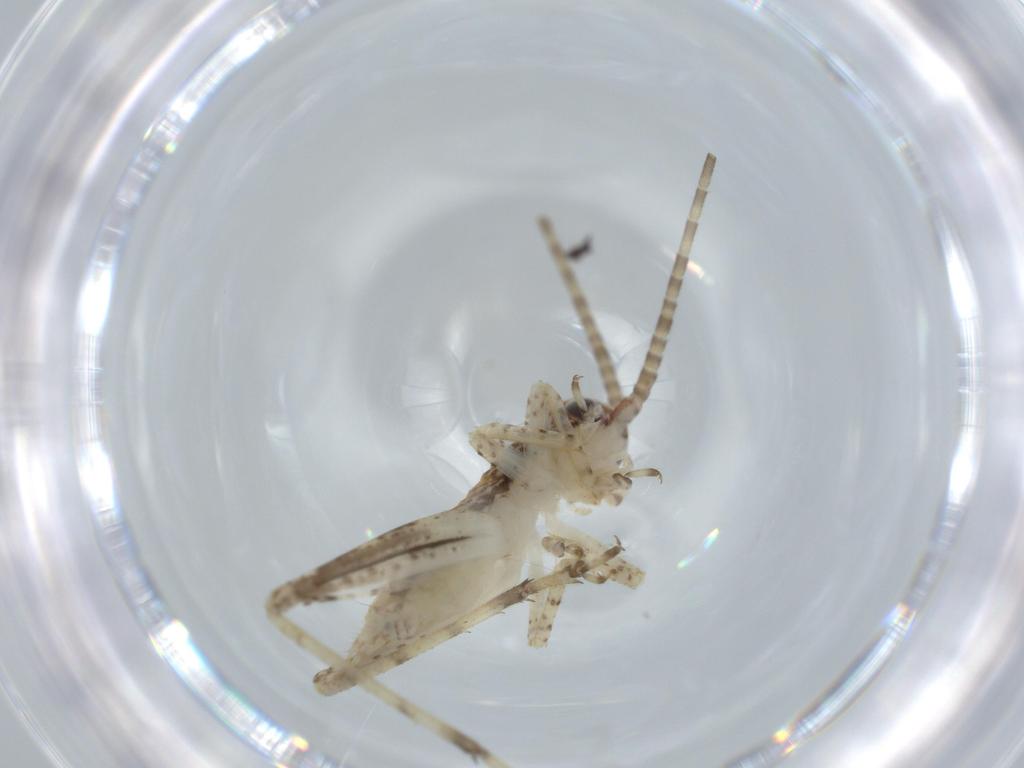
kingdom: Animalia
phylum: Arthropoda
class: Insecta
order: Orthoptera
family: Gryllidae
